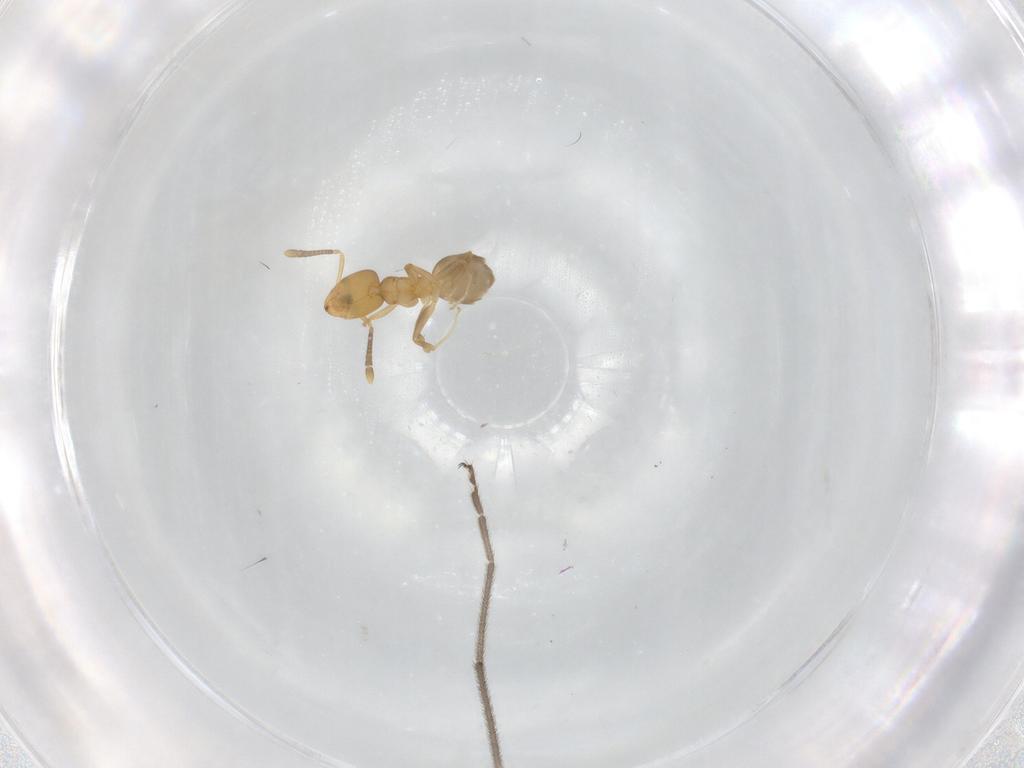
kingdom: Animalia
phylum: Arthropoda
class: Insecta
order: Hymenoptera
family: Formicidae
